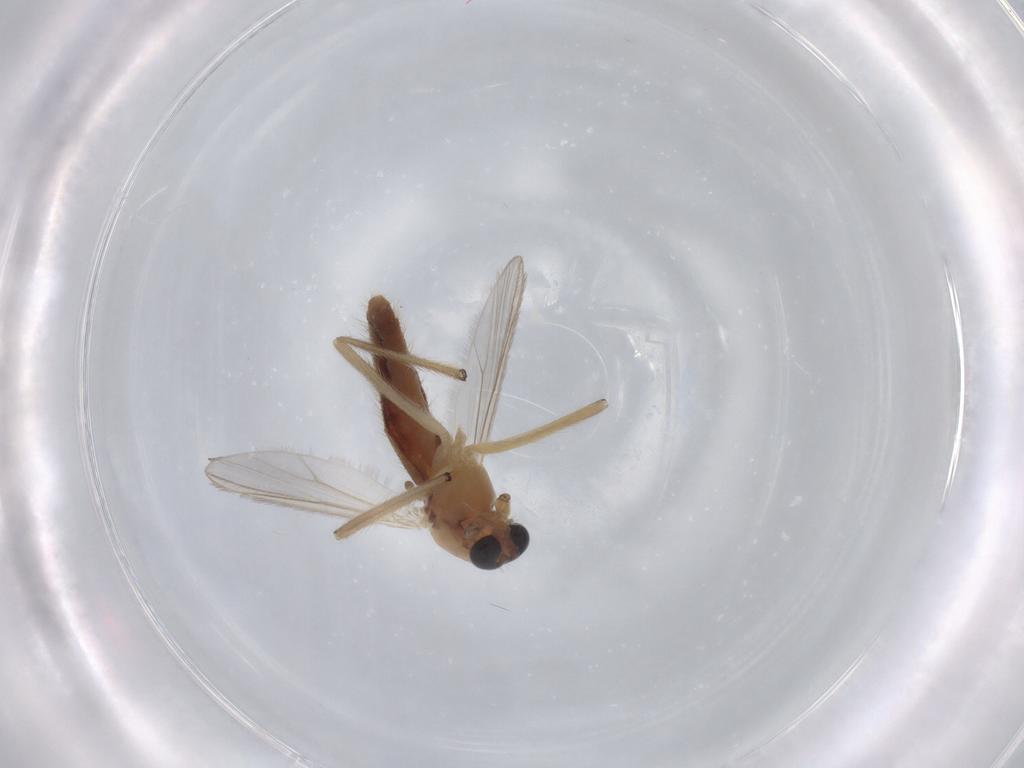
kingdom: Animalia
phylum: Arthropoda
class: Insecta
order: Diptera
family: Chironomidae
